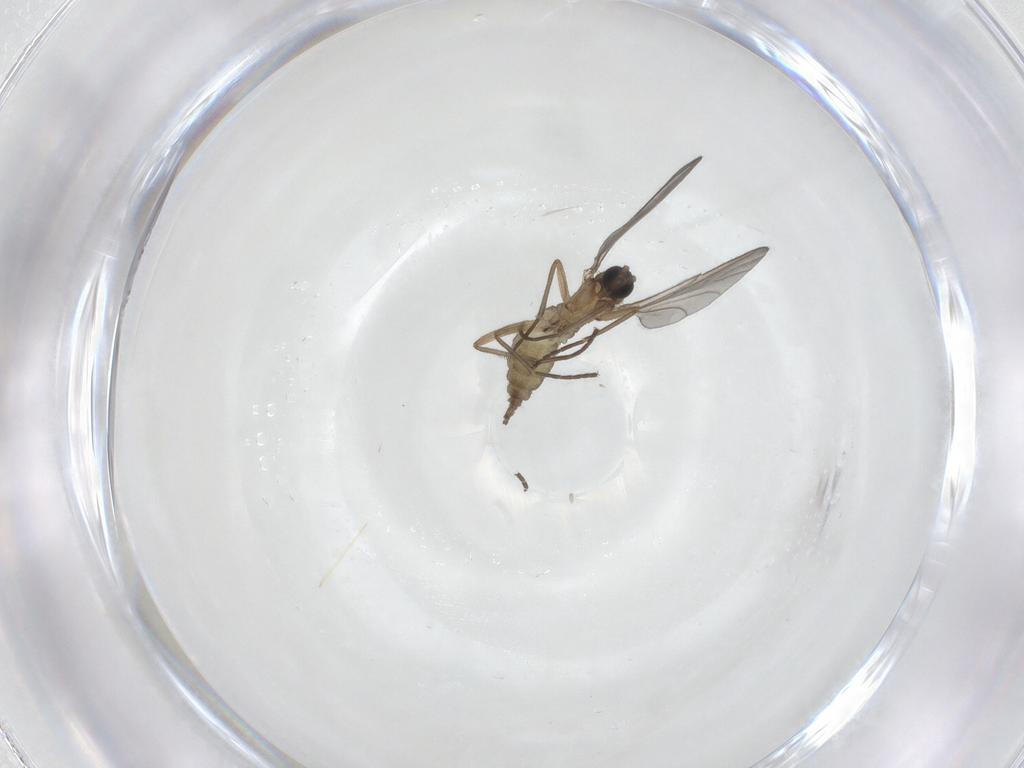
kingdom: Animalia
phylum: Arthropoda
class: Insecta
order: Diptera
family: Sciaridae
